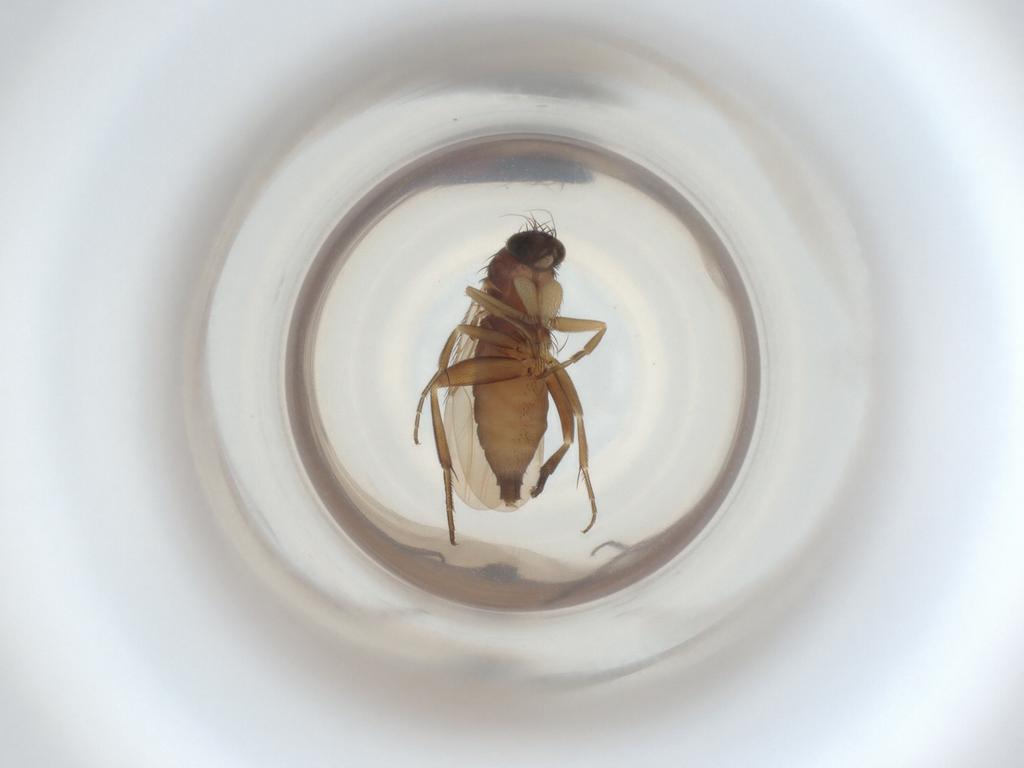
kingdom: Animalia
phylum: Arthropoda
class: Insecta
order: Diptera
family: Phoridae
